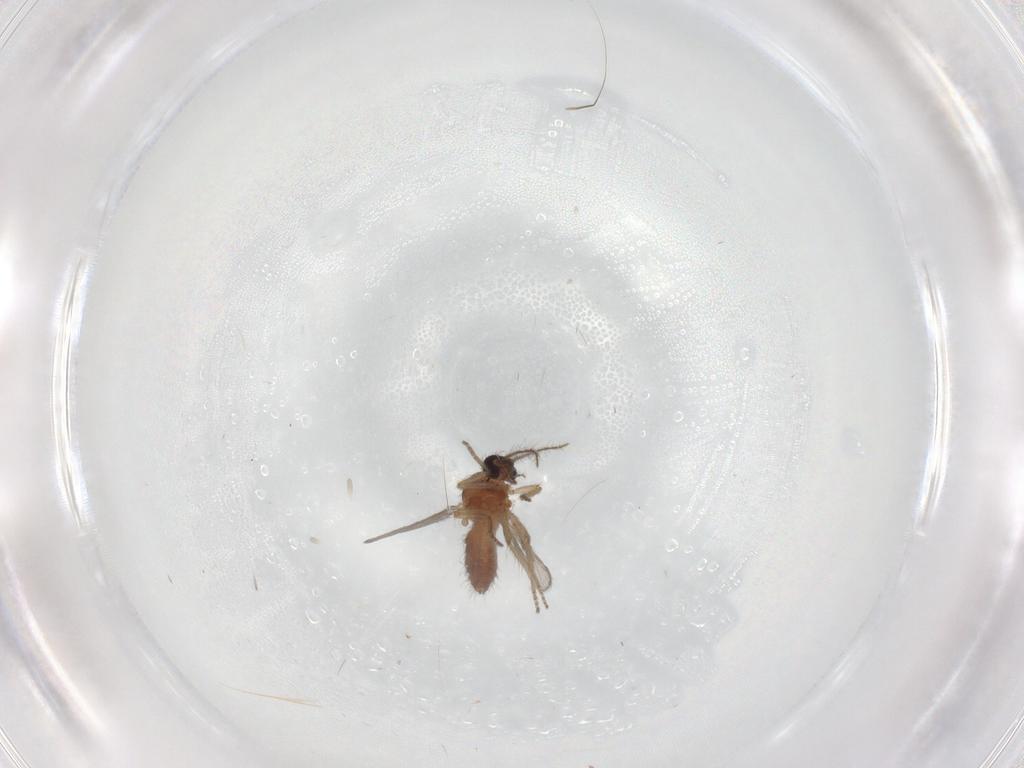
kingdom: Animalia
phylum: Arthropoda
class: Insecta
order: Diptera
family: Ceratopogonidae
